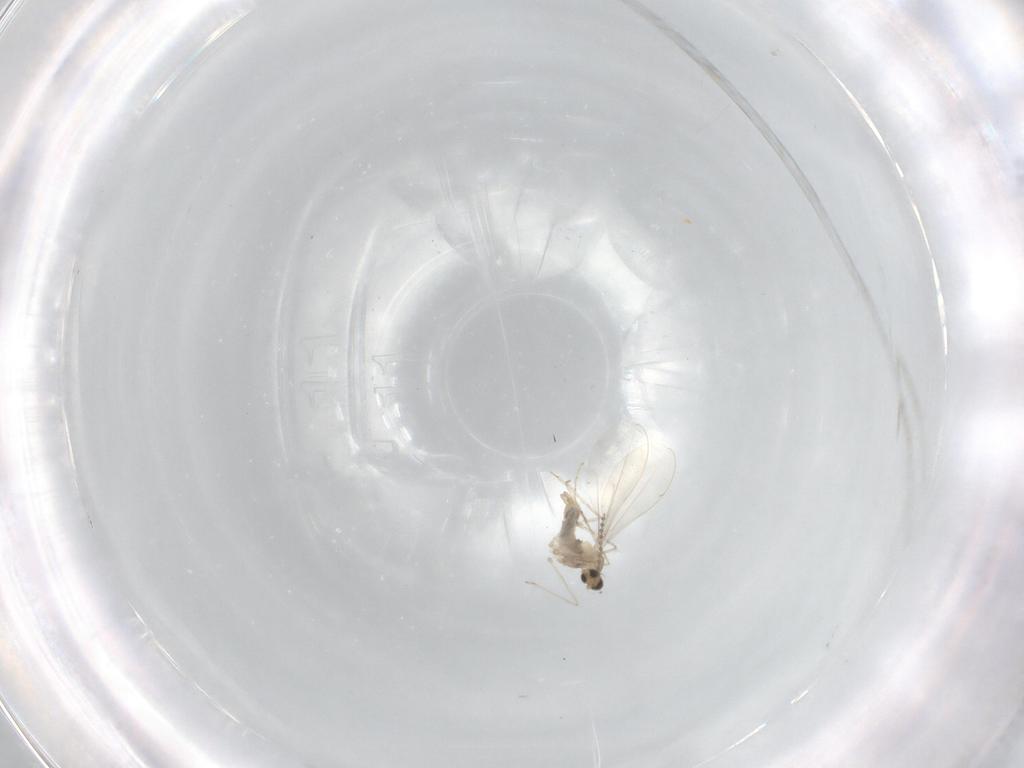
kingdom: Animalia
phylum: Arthropoda
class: Insecta
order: Diptera
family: Cecidomyiidae
